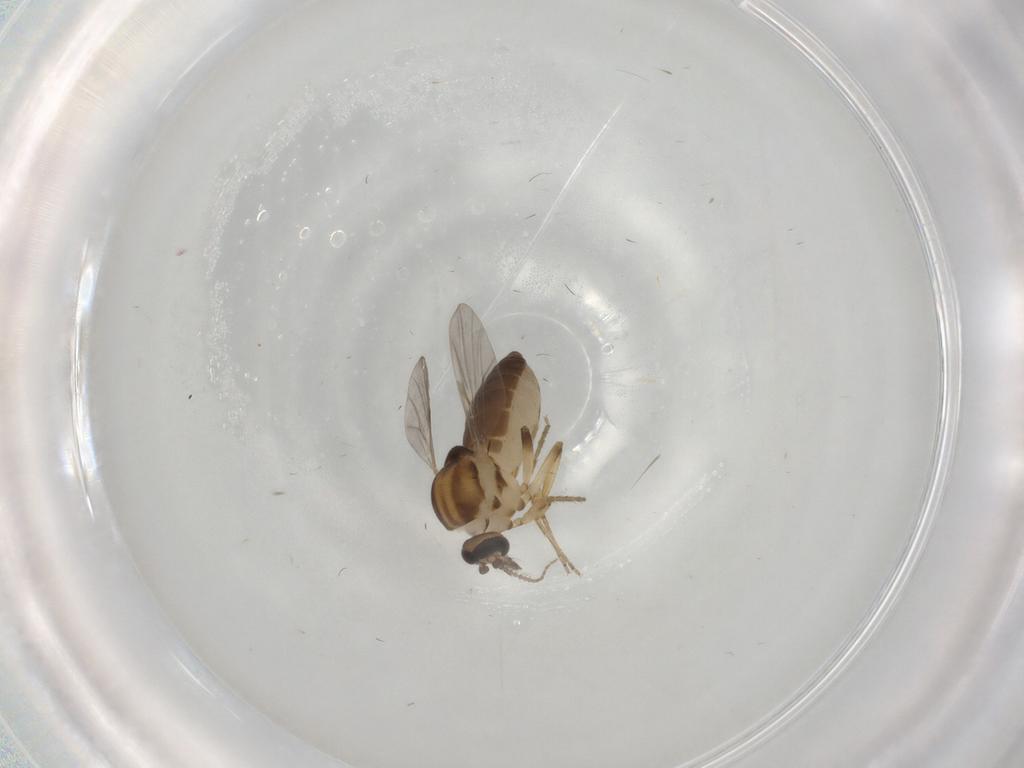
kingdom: Animalia
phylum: Arthropoda
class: Insecta
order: Diptera
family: Ceratopogonidae
